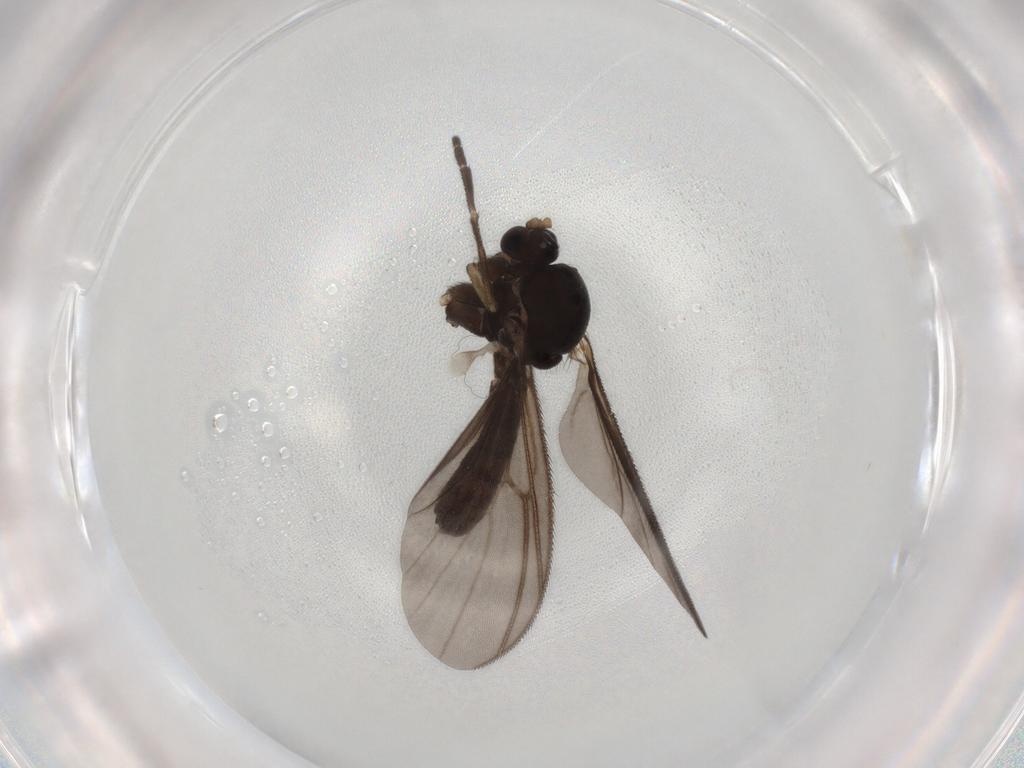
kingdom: Animalia
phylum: Arthropoda
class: Insecta
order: Diptera
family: Mycetophilidae
